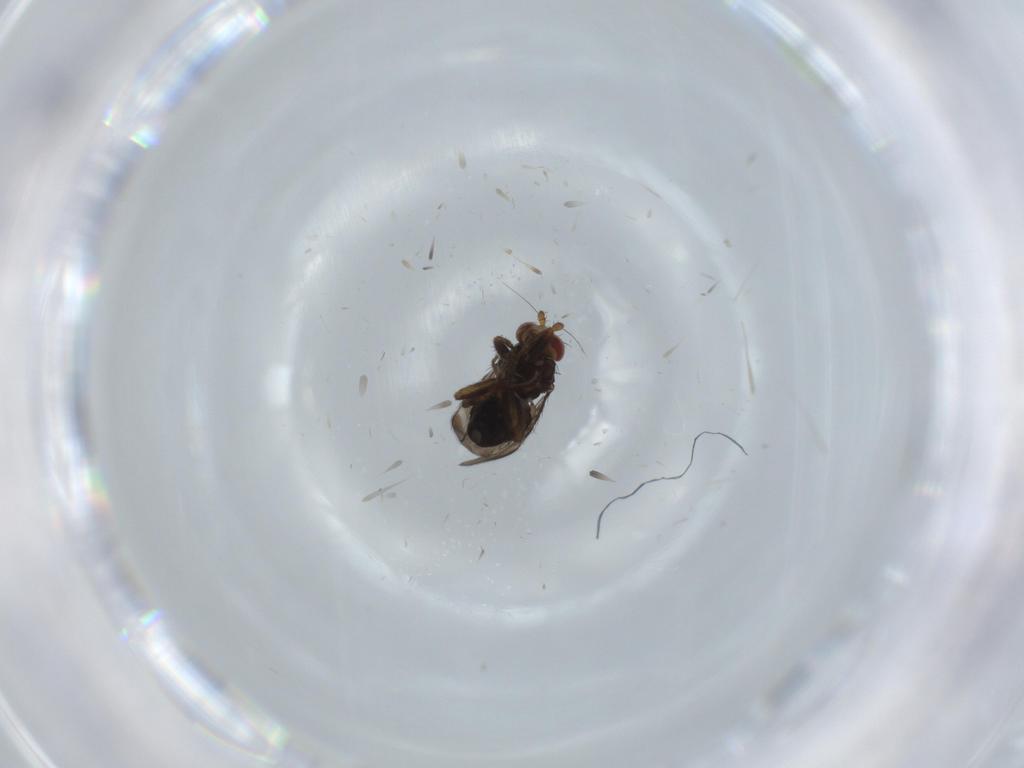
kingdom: Animalia
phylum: Arthropoda
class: Insecta
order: Diptera
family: Sphaeroceridae
